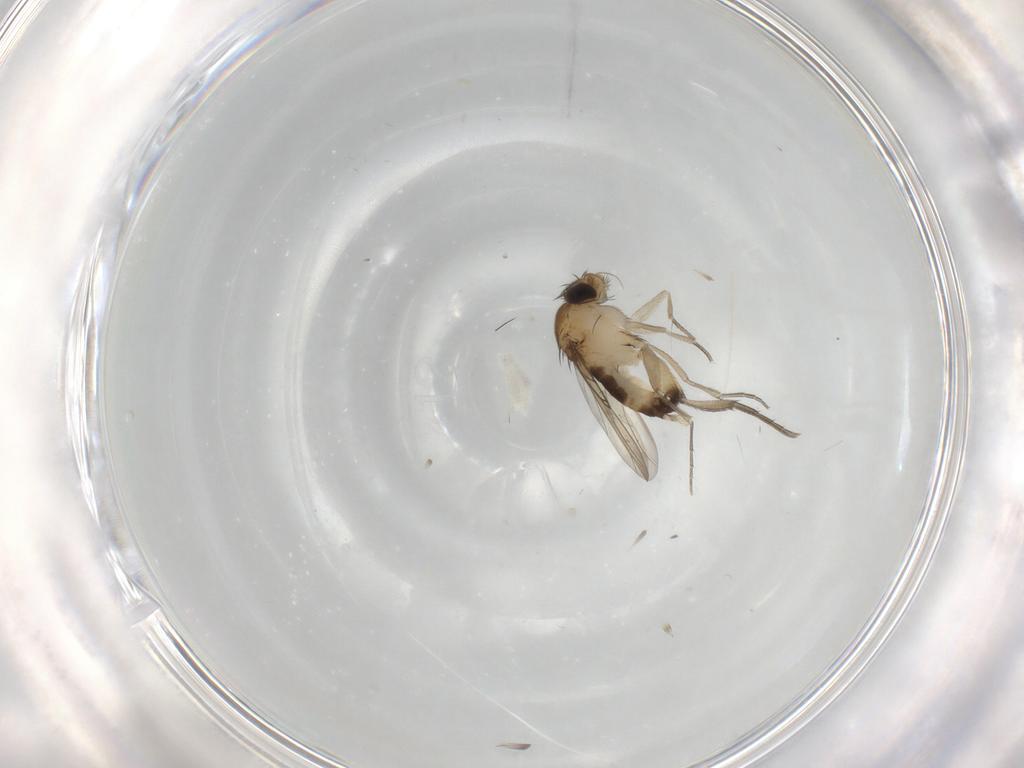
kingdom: Animalia
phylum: Arthropoda
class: Insecta
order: Diptera
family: Phoridae
